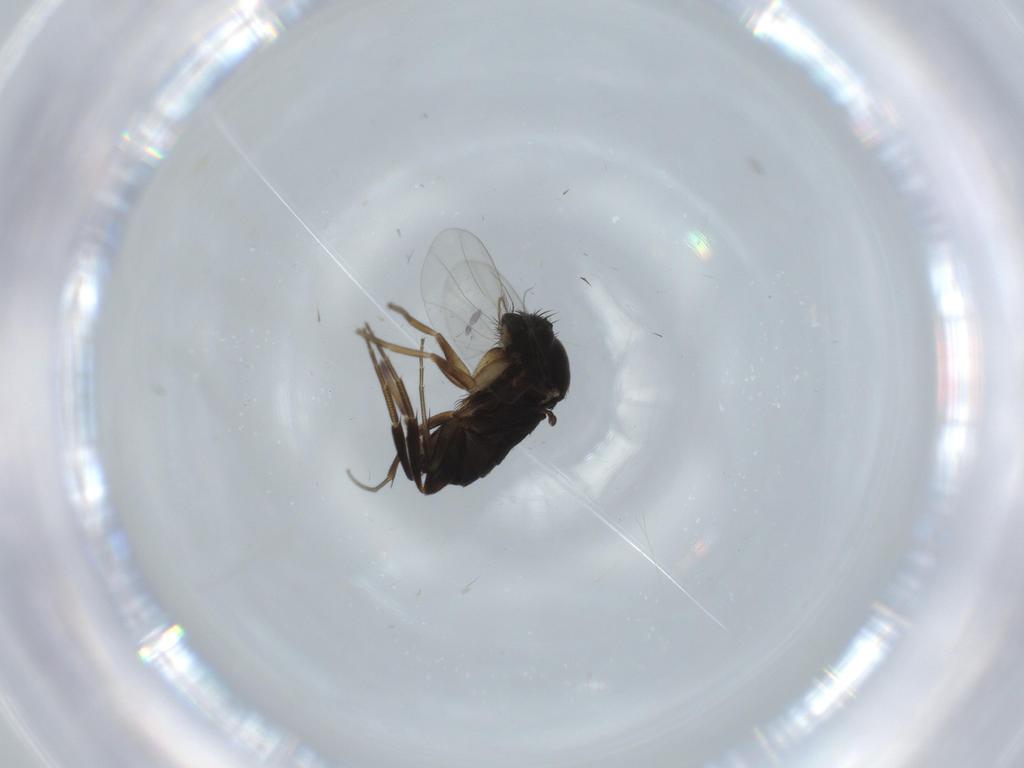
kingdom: Animalia
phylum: Arthropoda
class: Insecta
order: Diptera
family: Phoridae
